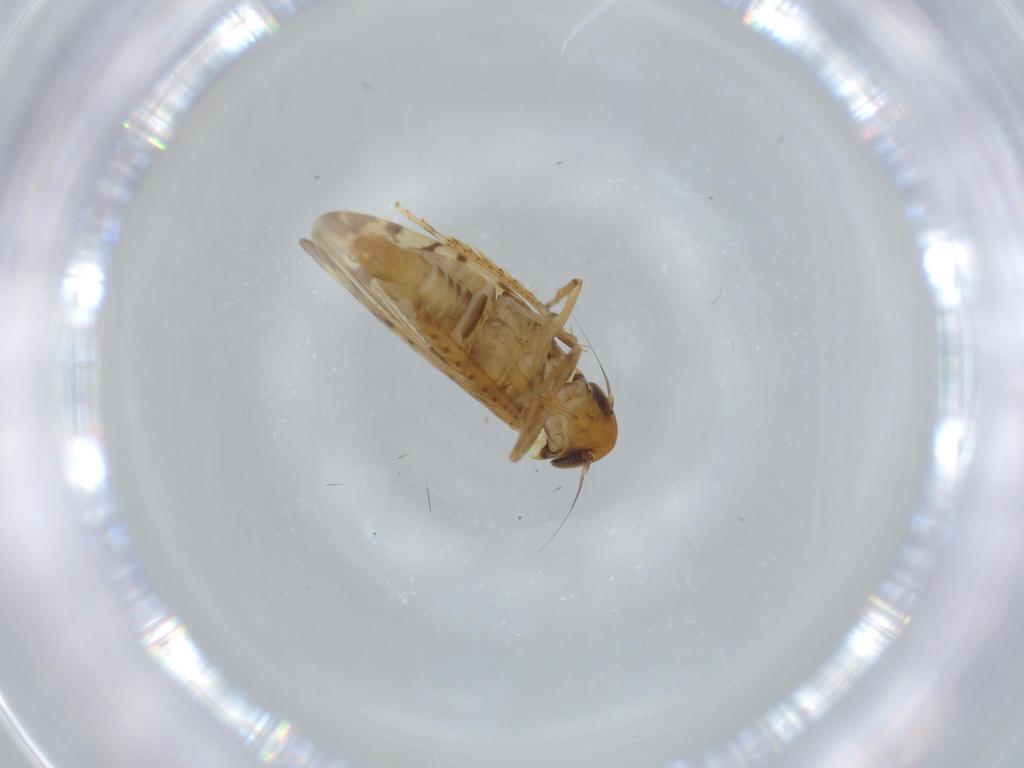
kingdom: Animalia
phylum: Arthropoda
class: Insecta
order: Hemiptera
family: Cicadellidae
